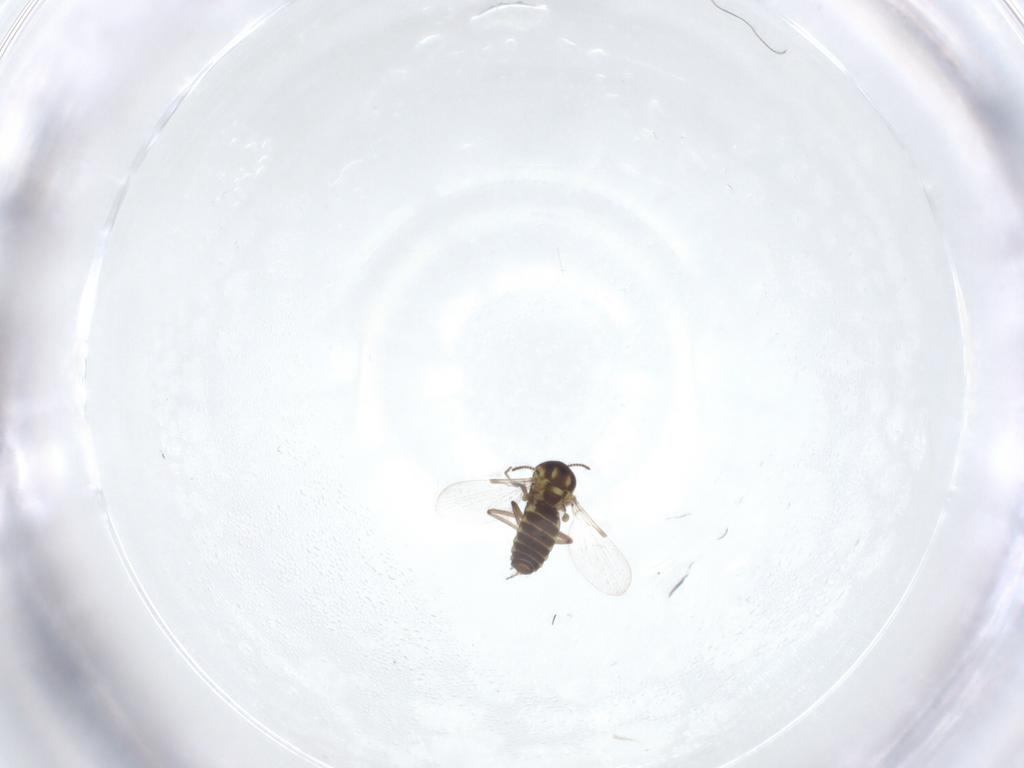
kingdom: Animalia
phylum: Arthropoda
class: Insecta
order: Diptera
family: Ceratopogonidae
